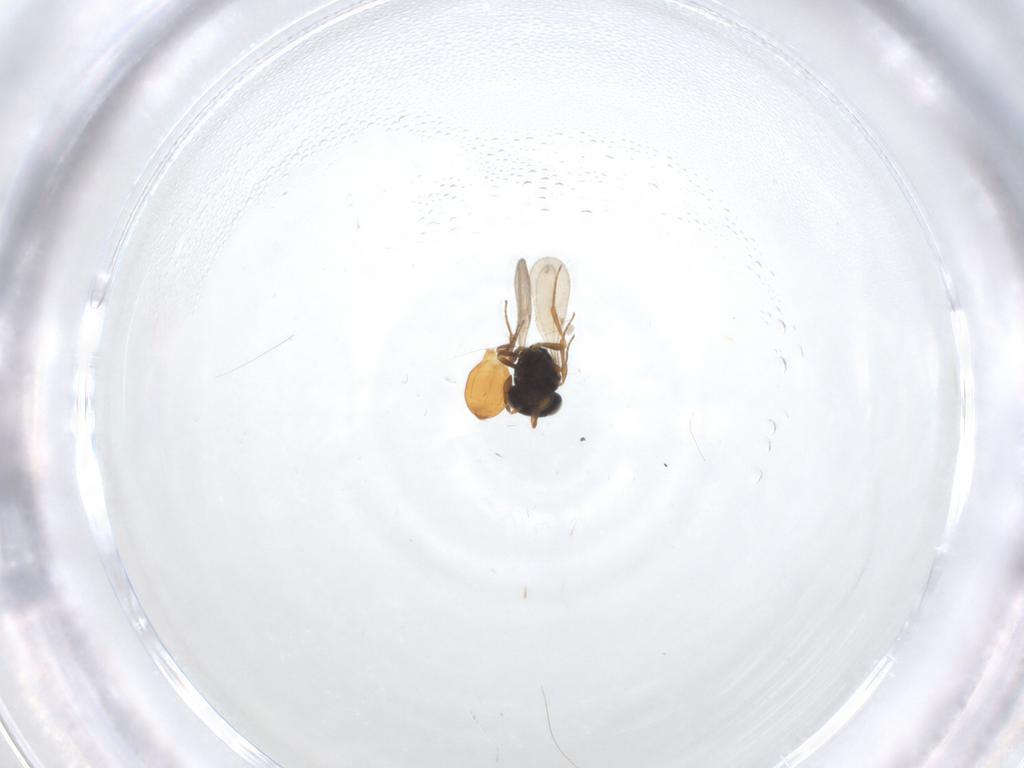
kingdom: Animalia
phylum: Arthropoda
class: Insecta
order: Hymenoptera
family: Scelionidae
